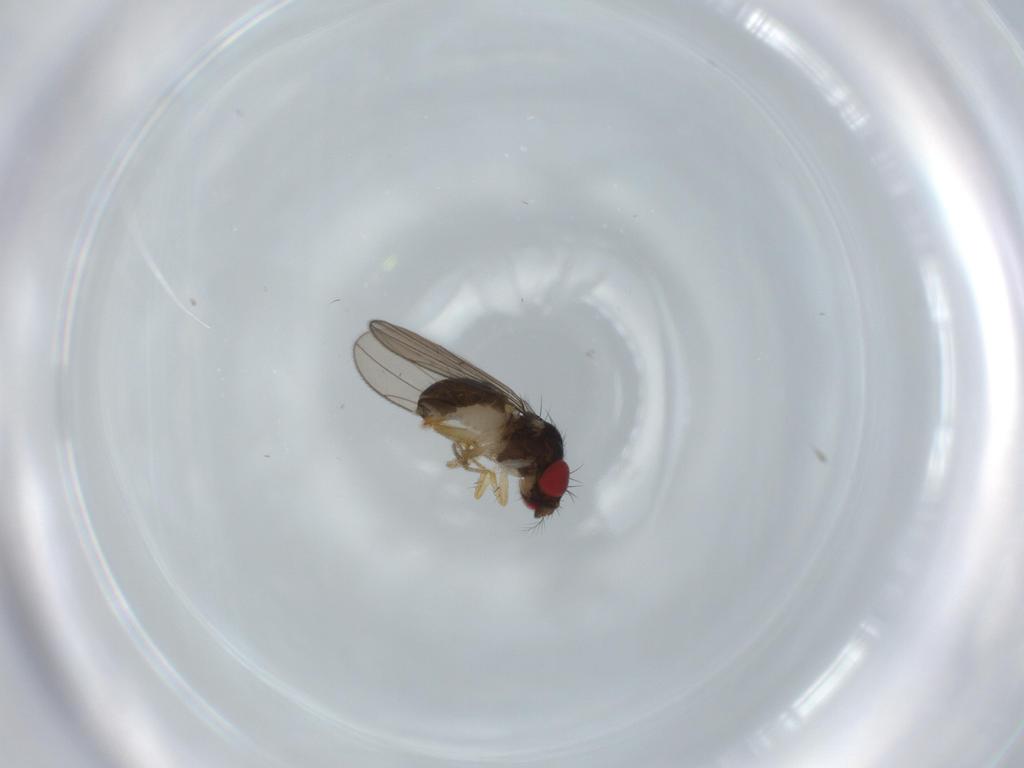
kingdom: Animalia
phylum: Arthropoda
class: Insecta
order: Diptera
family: Drosophilidae
